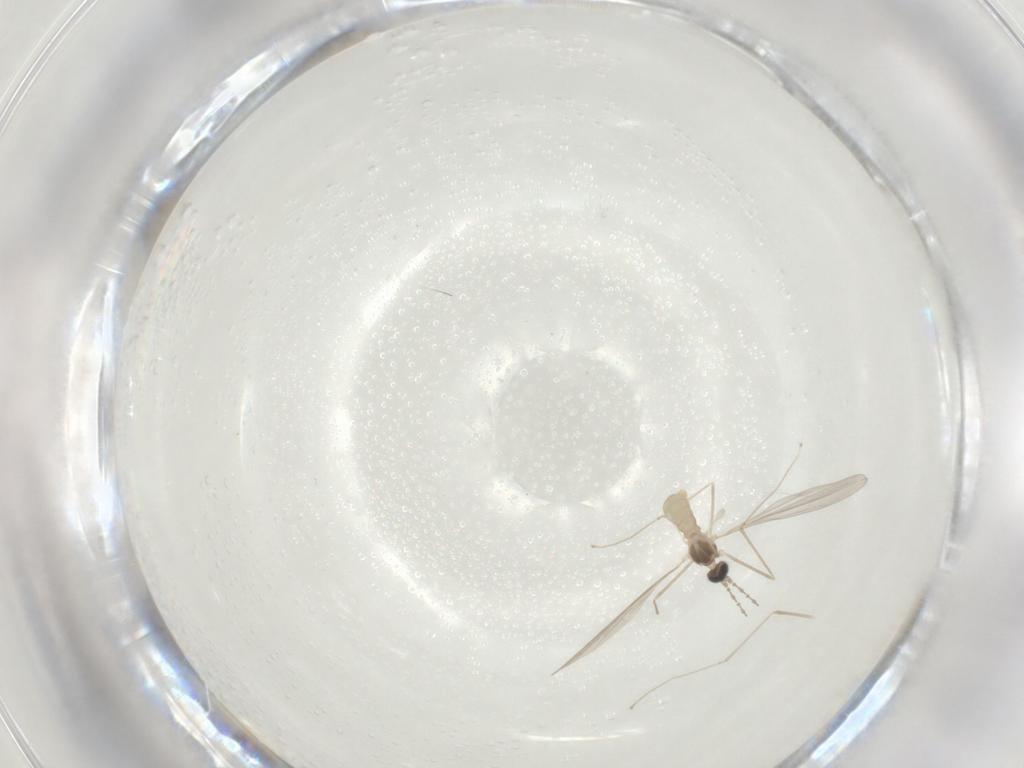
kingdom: Animalia
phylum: Arthropoda
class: Insecta
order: Diptera
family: Cecidomyiidae
